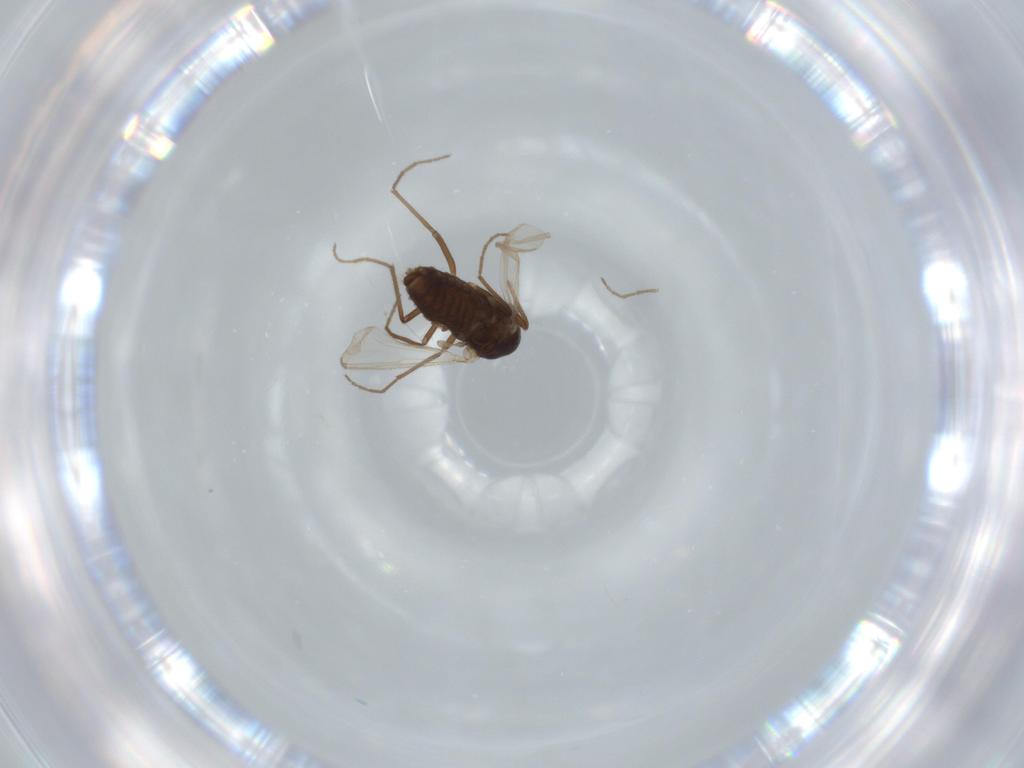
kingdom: Animalia
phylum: Arthropoda
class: Insecta
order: Diptera
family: Chironomidae
